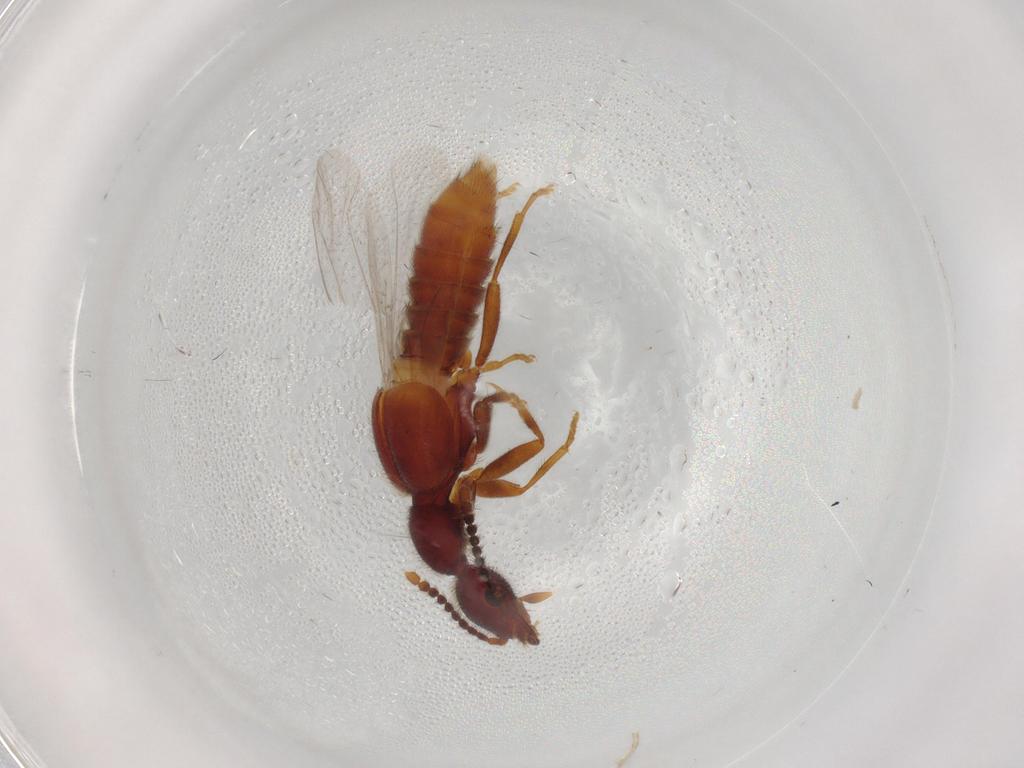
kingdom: Animalia
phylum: Arthropoda
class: Insecta
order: Coleoptera
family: Staphylinidae
